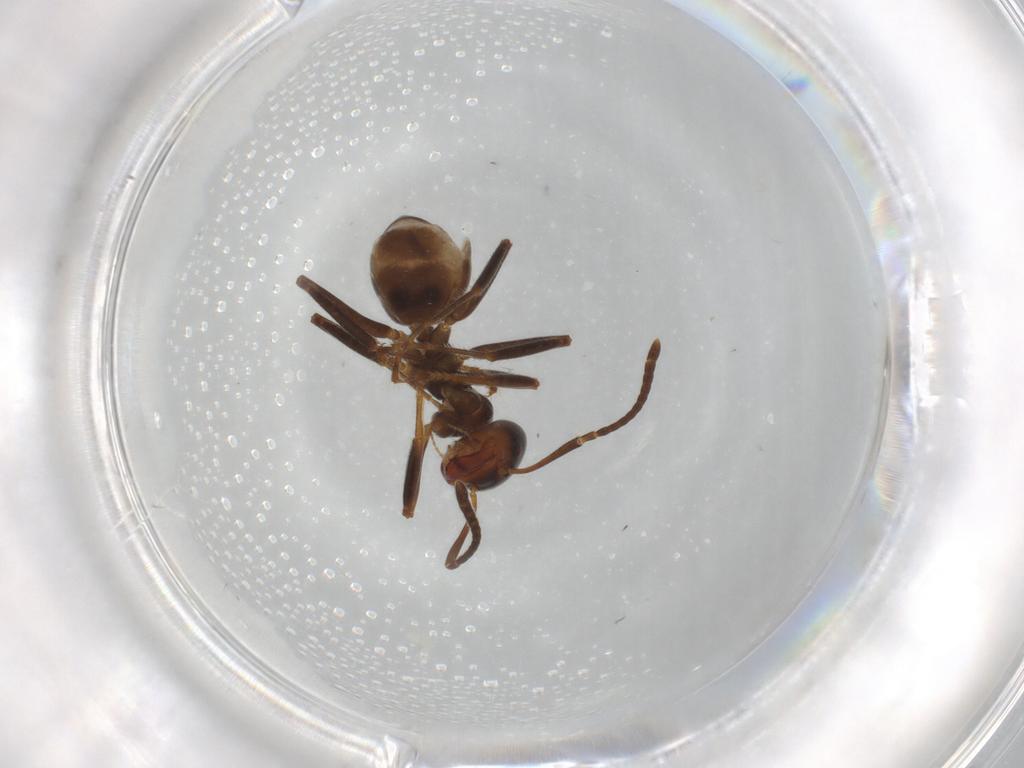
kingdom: Animalia
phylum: Arthropoda
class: Insecta
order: Hymenoptera
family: Formicidae
